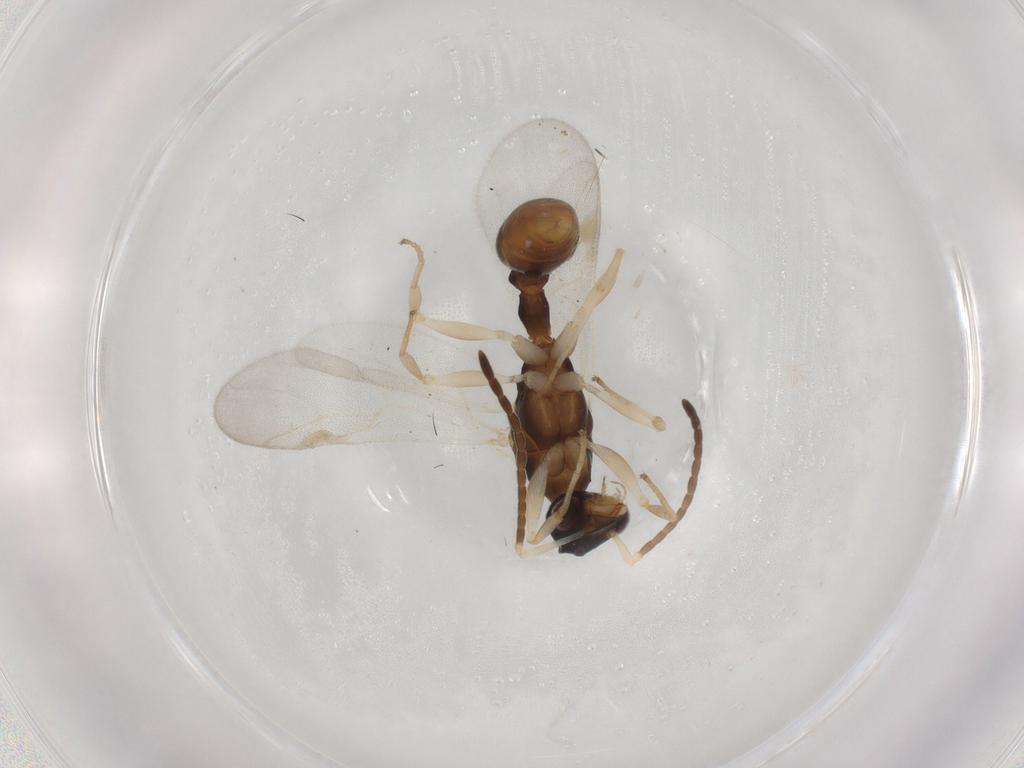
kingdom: Animalia
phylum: Arthropoda
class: Insecta
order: Hymenoptera
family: Formicidae
